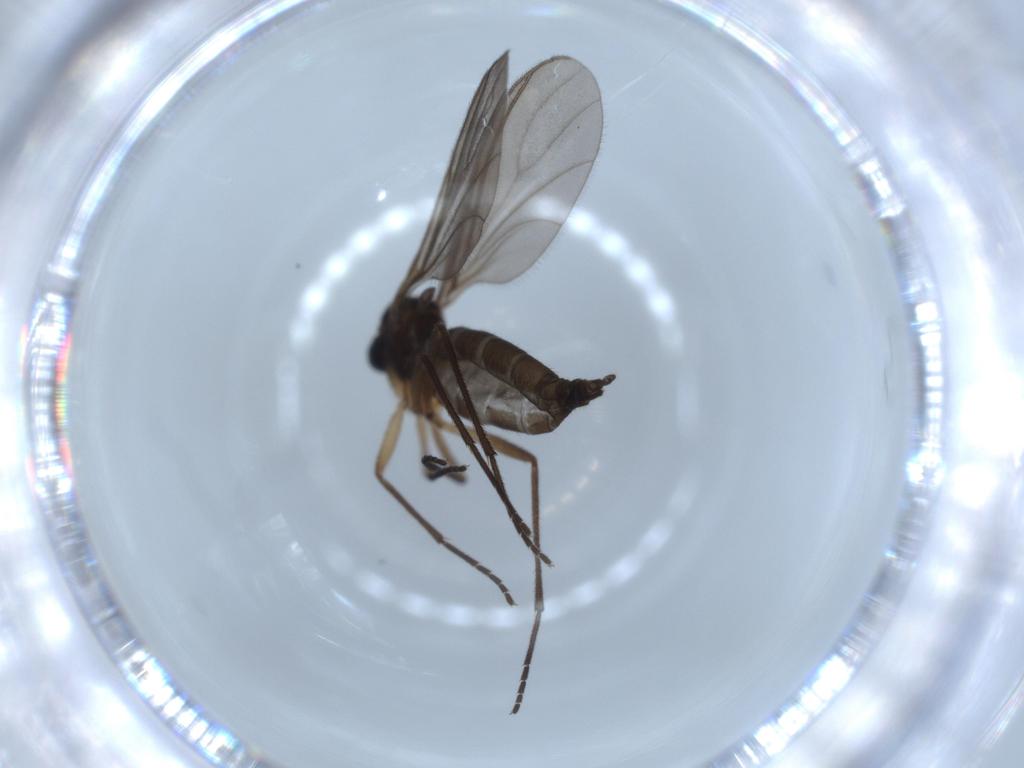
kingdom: Animalia
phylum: Arthropoda
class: Insecta
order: Diptera
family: Sciaridae
